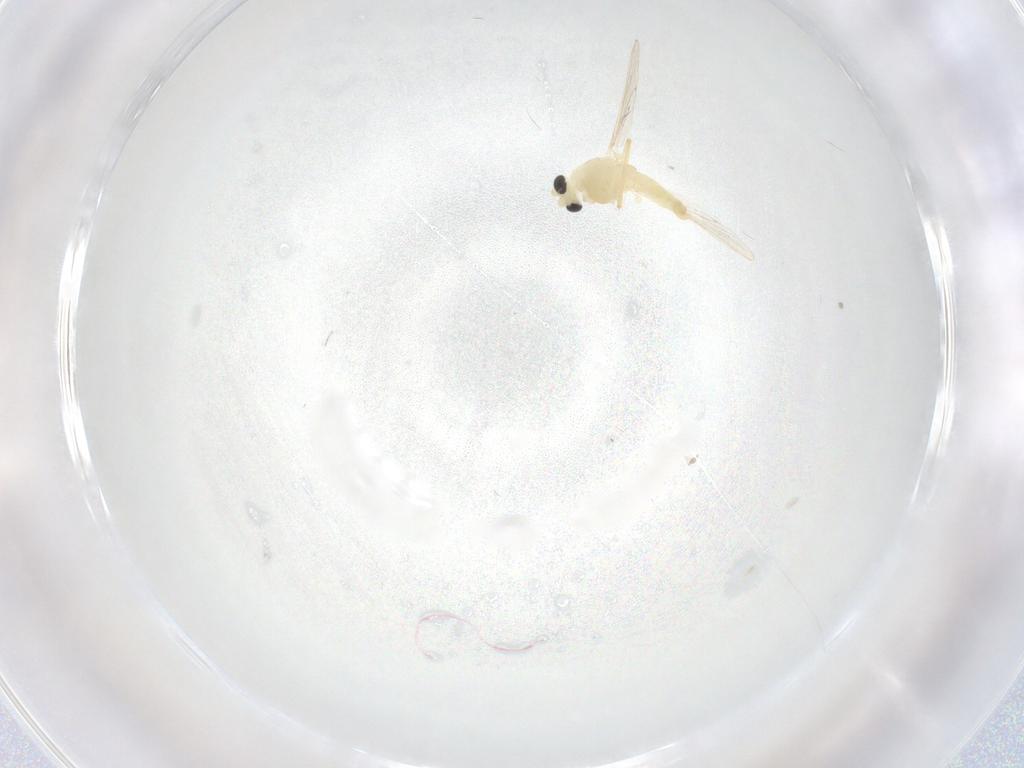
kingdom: Animalia
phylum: Arthropoda
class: Insecta
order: Diptera
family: Chironomidae
